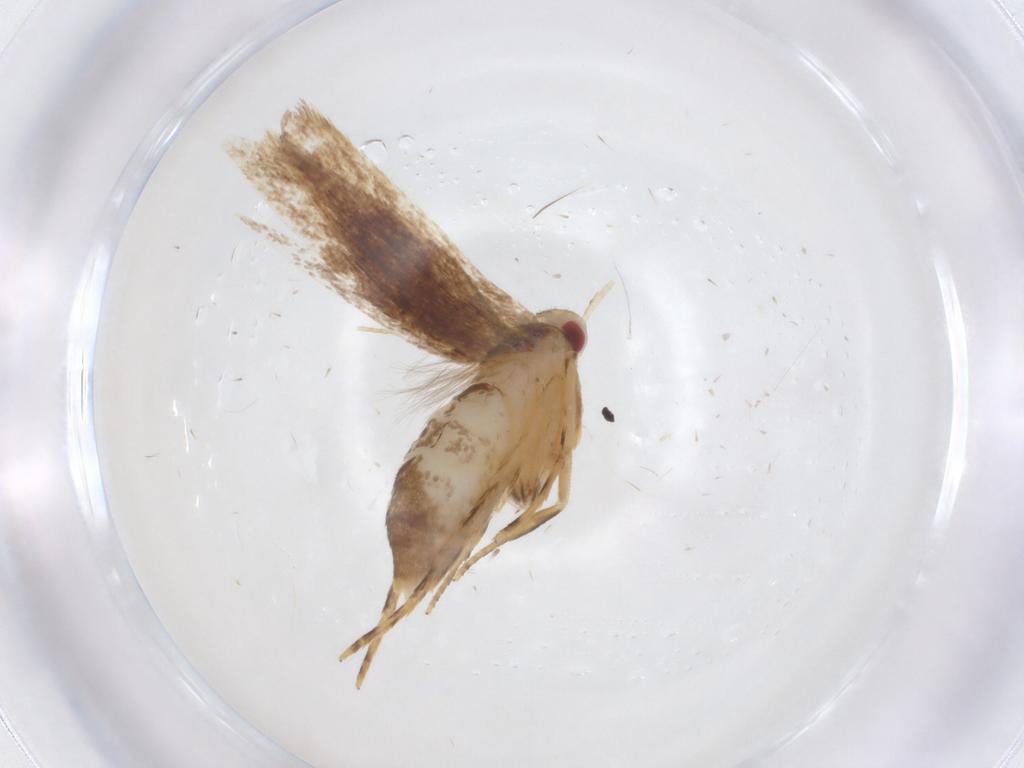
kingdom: Animalia
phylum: Arthropoda
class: Insecta
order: Lepidoptera
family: Cosmopterigidae
